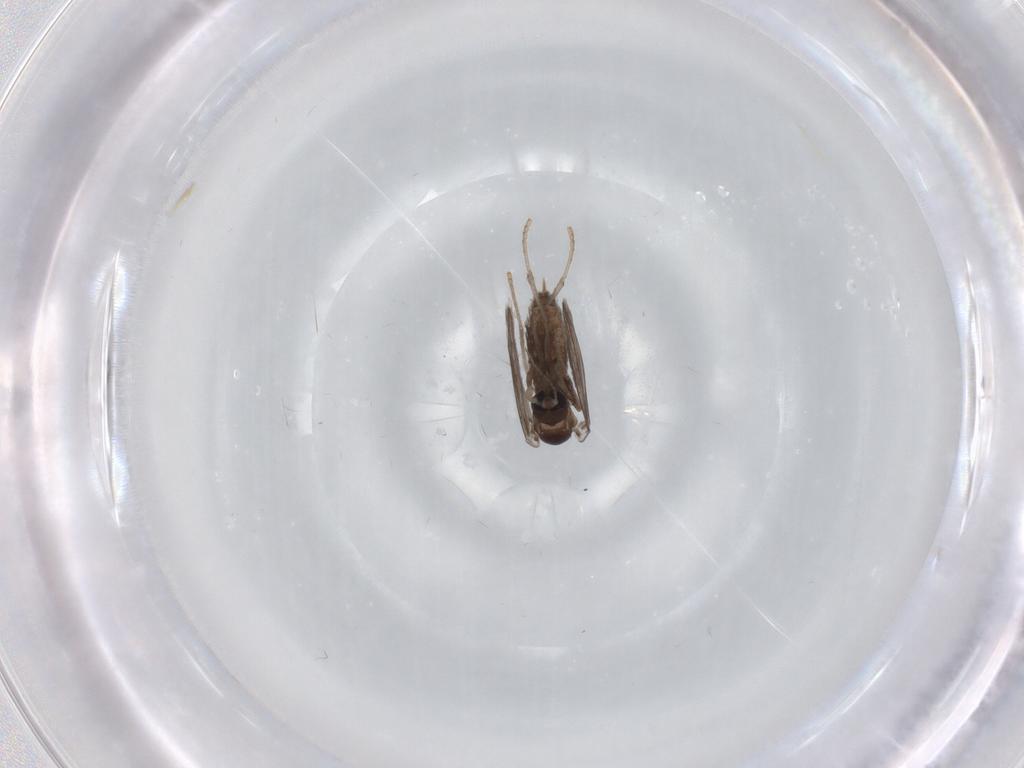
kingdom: Animalia
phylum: Arthropoda
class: Insecta
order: Diptera
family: Psychodidae
